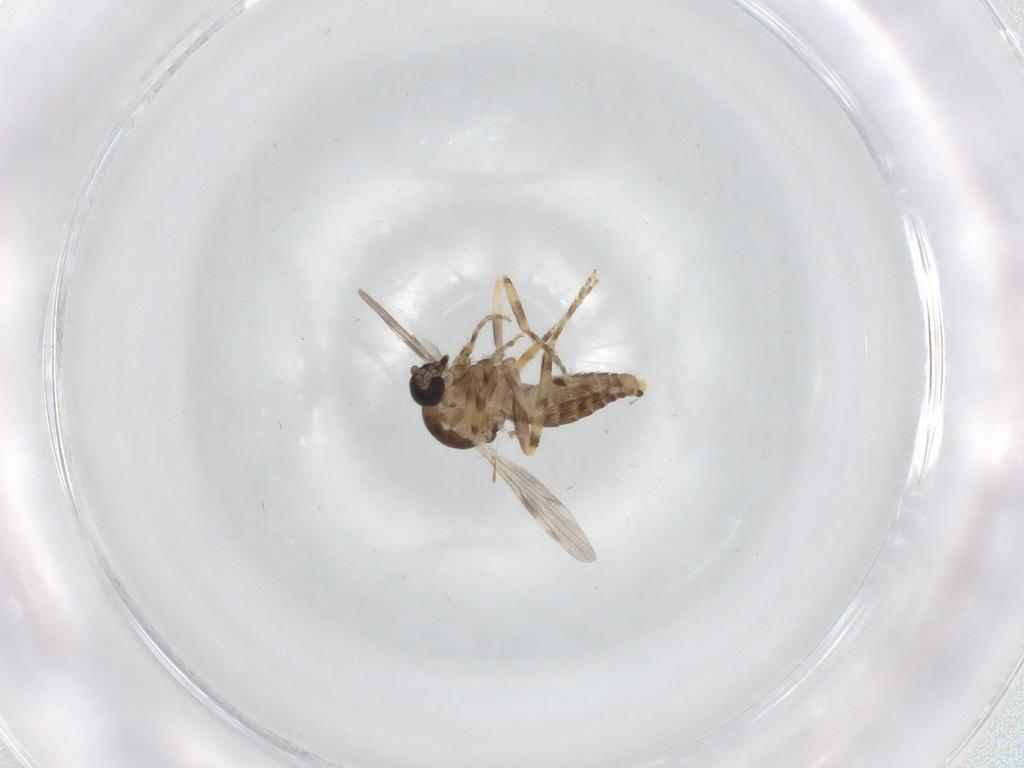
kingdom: Animalia
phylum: Arthropoda
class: Insecta
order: Diptera
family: Ceratopogonidae
